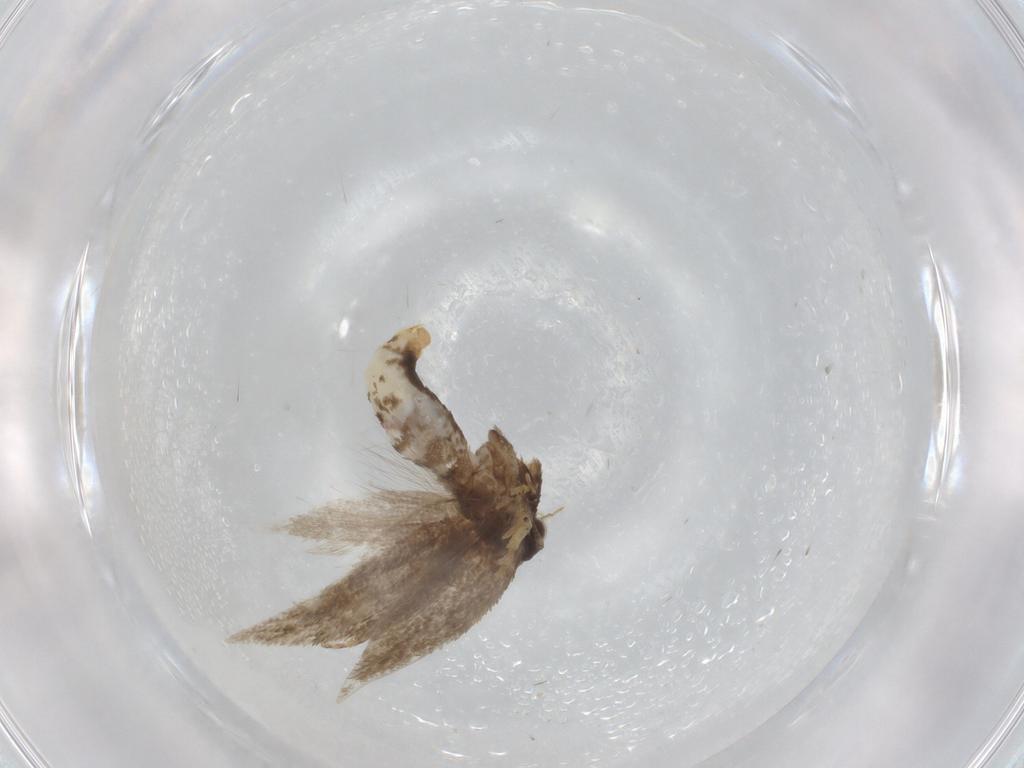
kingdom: Animalia
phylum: Arthropoda
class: Insecta
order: Lepidoptera
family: Nepticulidae
